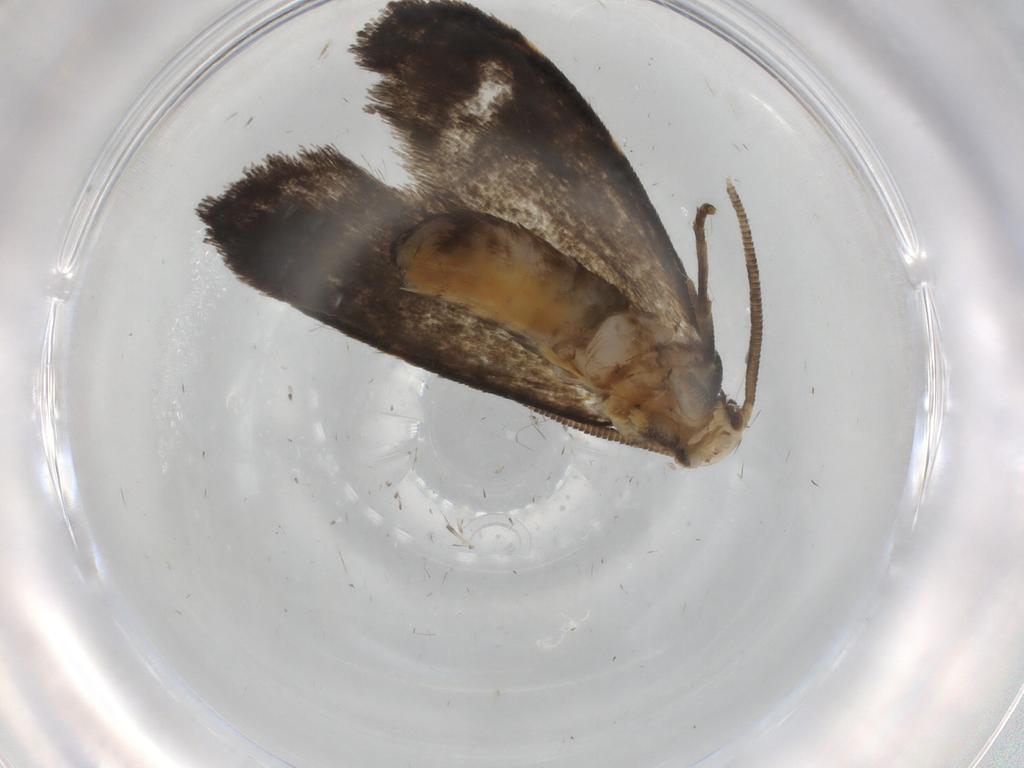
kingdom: Animalia
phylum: Arthropoda
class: Insecta
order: Lepidoptera
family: Dryadaulidae
